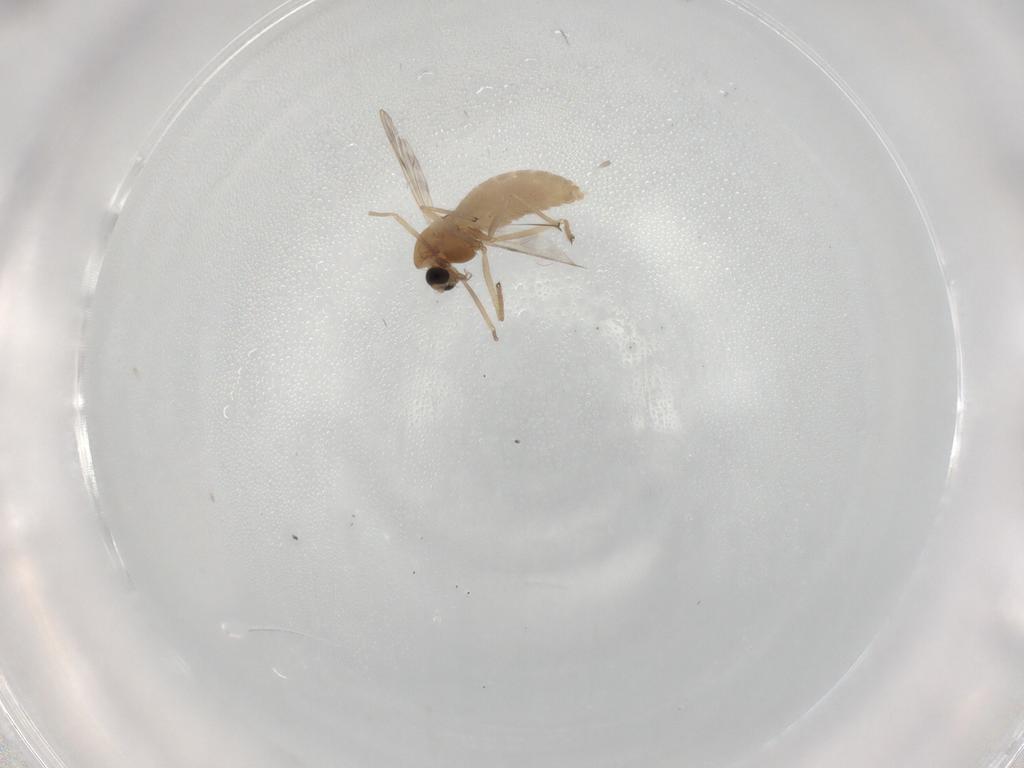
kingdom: Animalia
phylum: Arthropoda
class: Insecta
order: Diptera
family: Chironomidae
